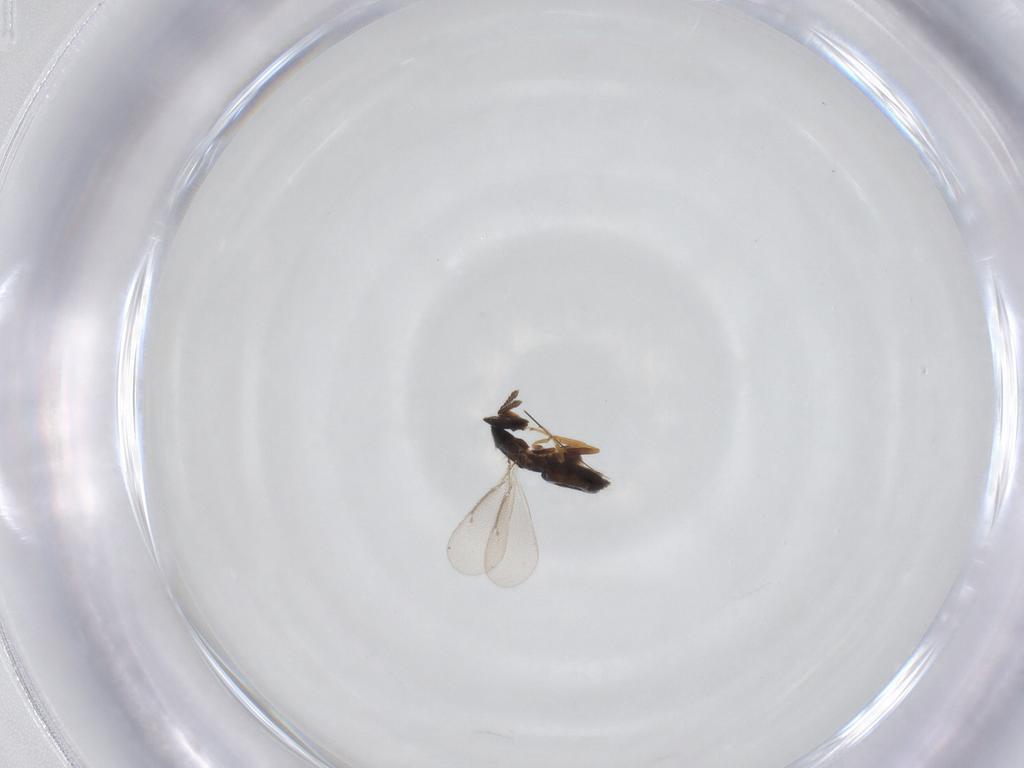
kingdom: Animalia
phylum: Arthropoda
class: Insecta
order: Hymenoptera
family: Eulophidae
